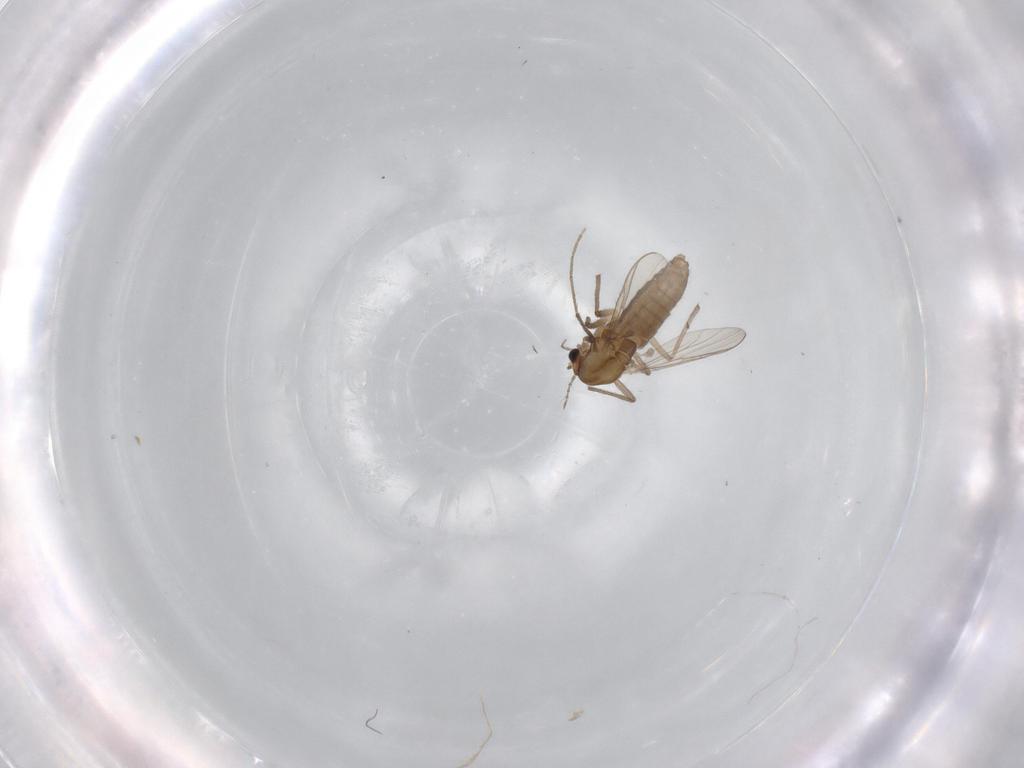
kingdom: Animalia
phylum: Arthropoda
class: Insecta
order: Diptera
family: Chironomidae
